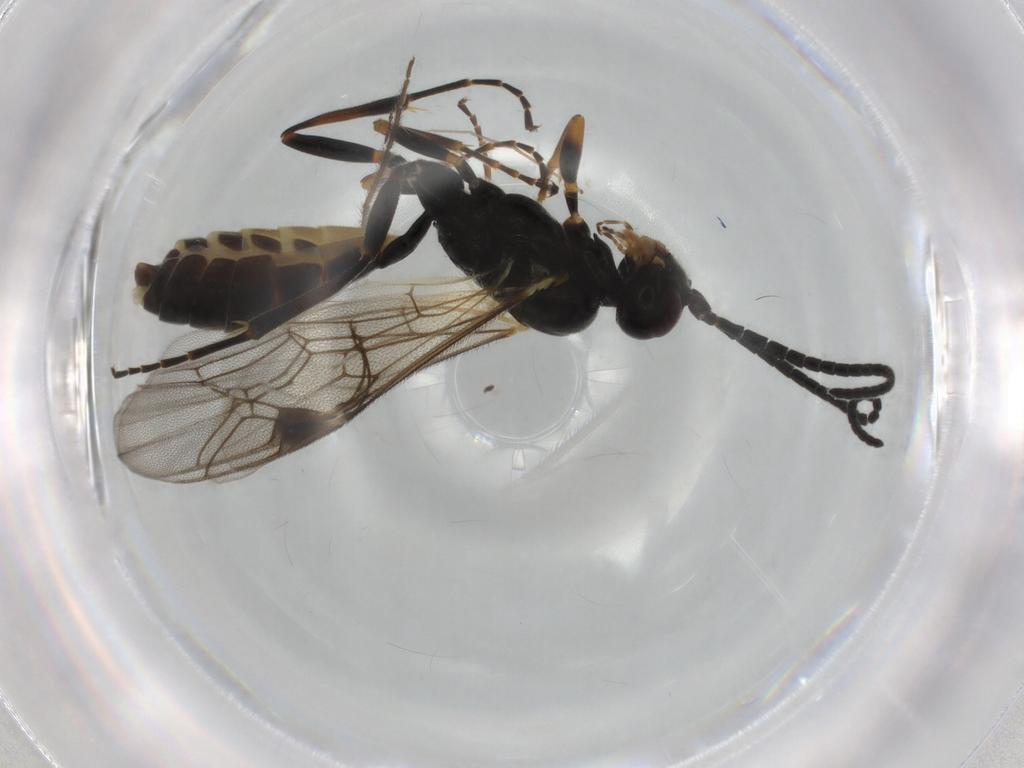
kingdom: Animalia
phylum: Arthropoda
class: Insecta
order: Hymenoptera
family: Ichneumonidae
